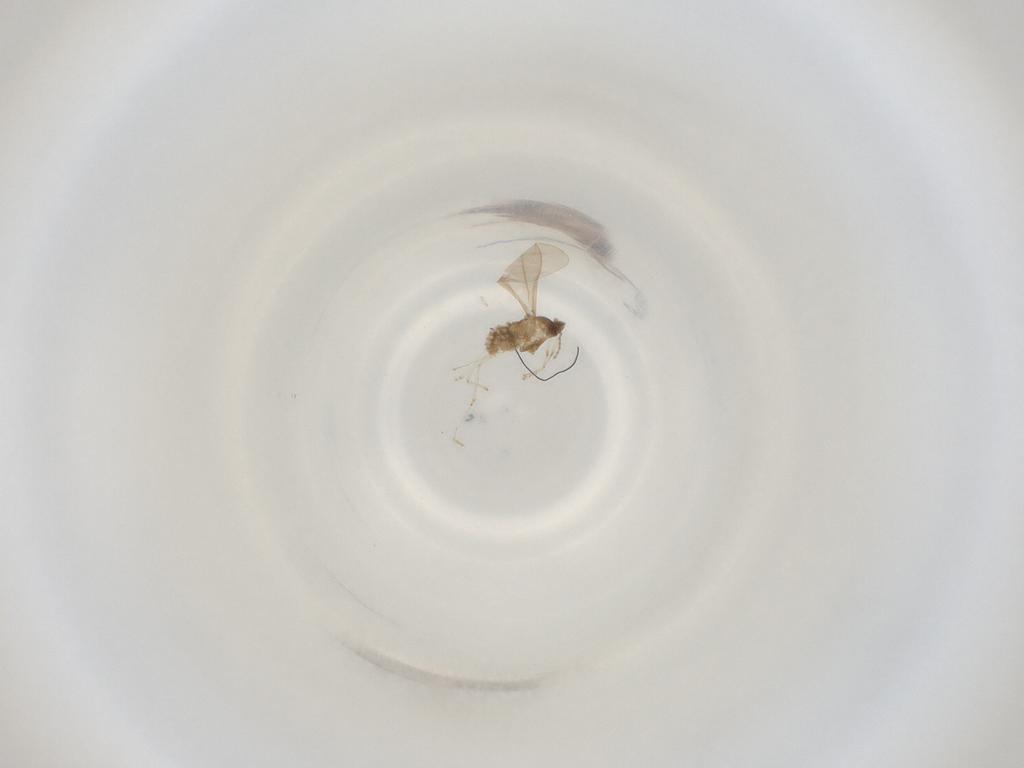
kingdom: Animalia
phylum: Arthropoda
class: Insecta
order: Diptera
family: Cecidomyiidae
